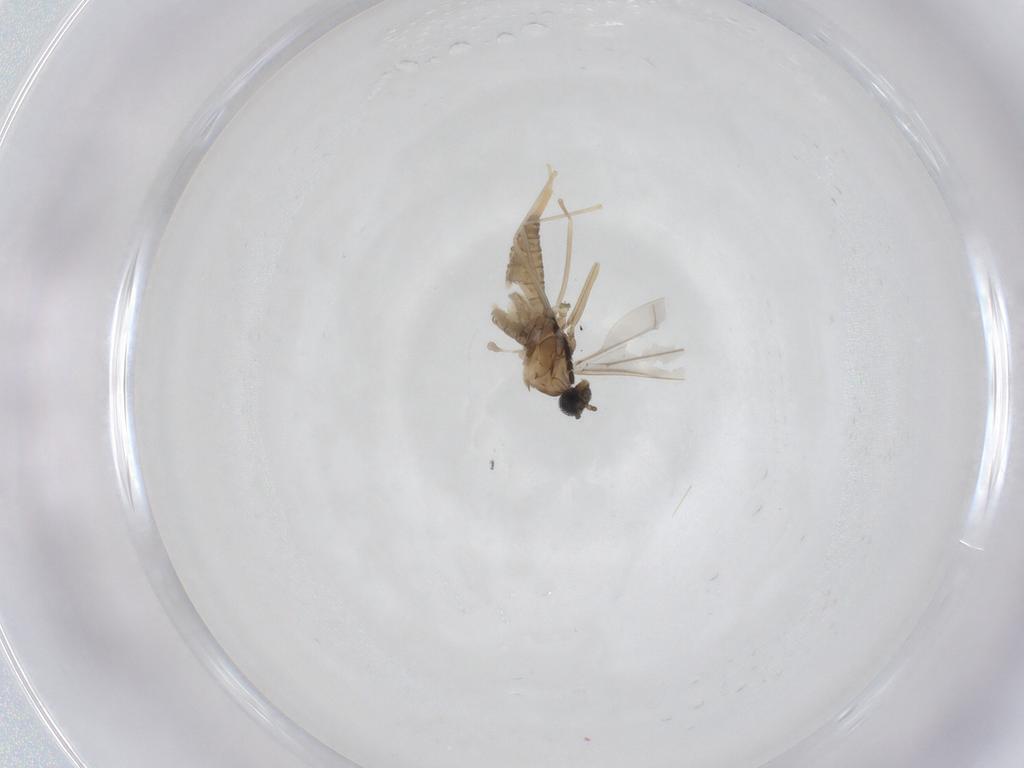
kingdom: Animalia
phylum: Arthropoda
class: Insecta
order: Diptera
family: Cecidomyiidae
